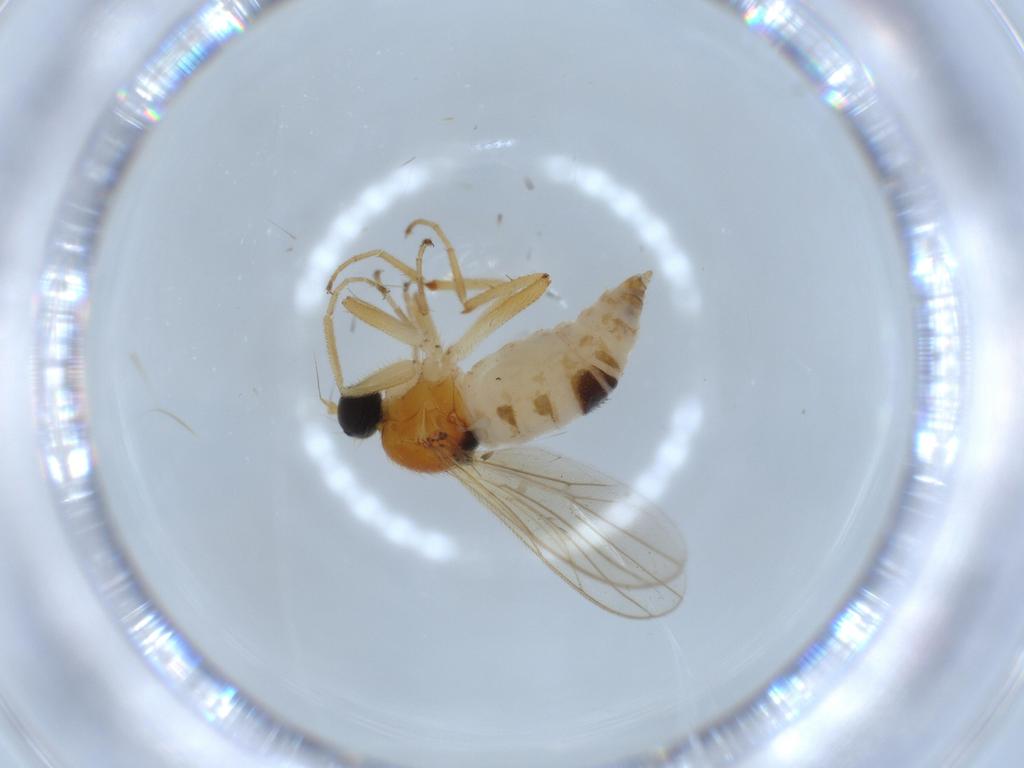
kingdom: Animalia
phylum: Arthropoda
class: Insecta
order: Diptera
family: Hybotidae
